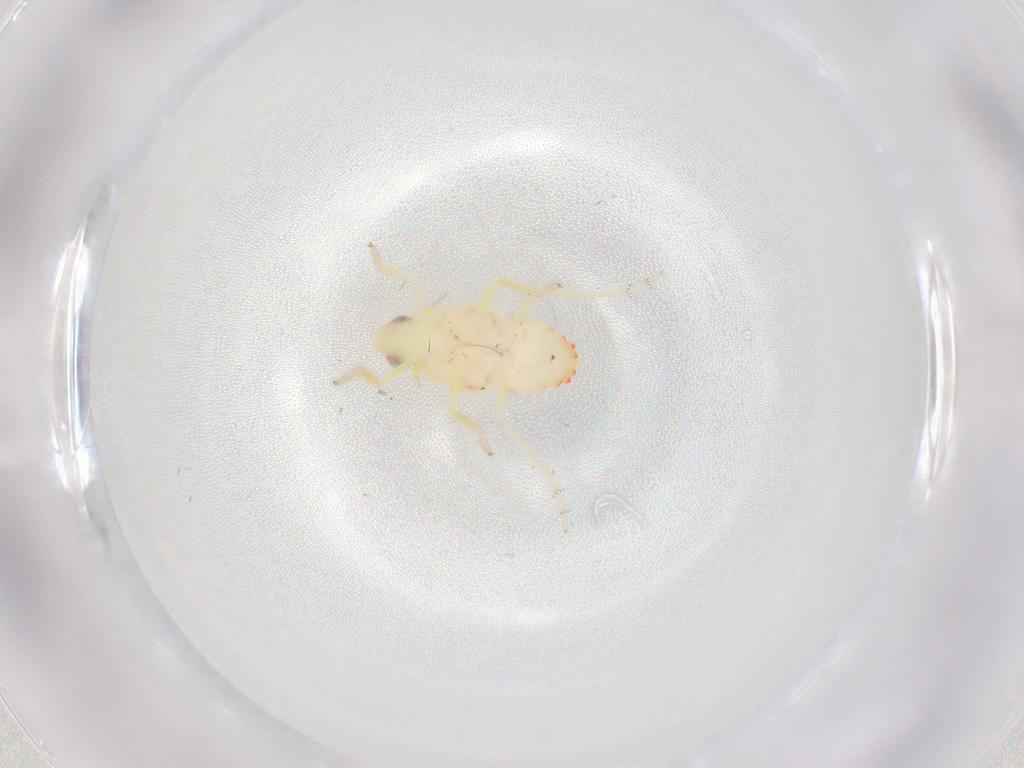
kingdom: Animalia
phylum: Arthropoda
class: Insecta
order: Hemiptera
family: Tropiduchidae
